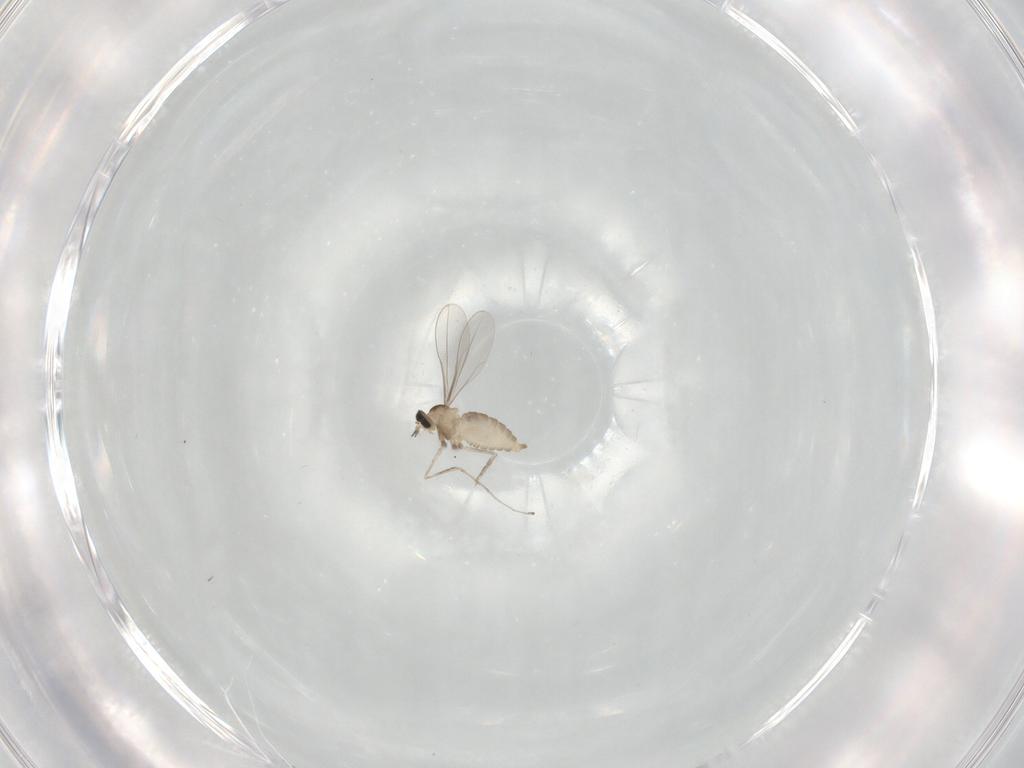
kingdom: Animalia
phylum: Arthropoda
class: Insecta
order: Diptera
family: Cecidomyiidae
